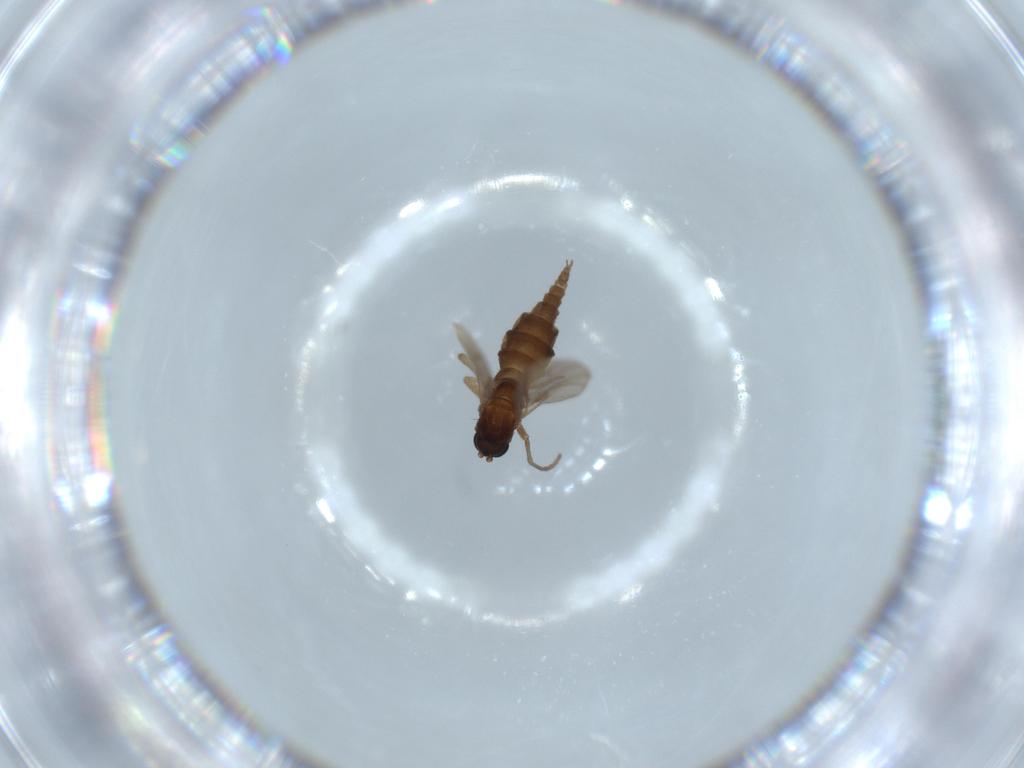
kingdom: Animalia
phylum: Arthropoda
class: Insecta
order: Diptera
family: Sciaridae
